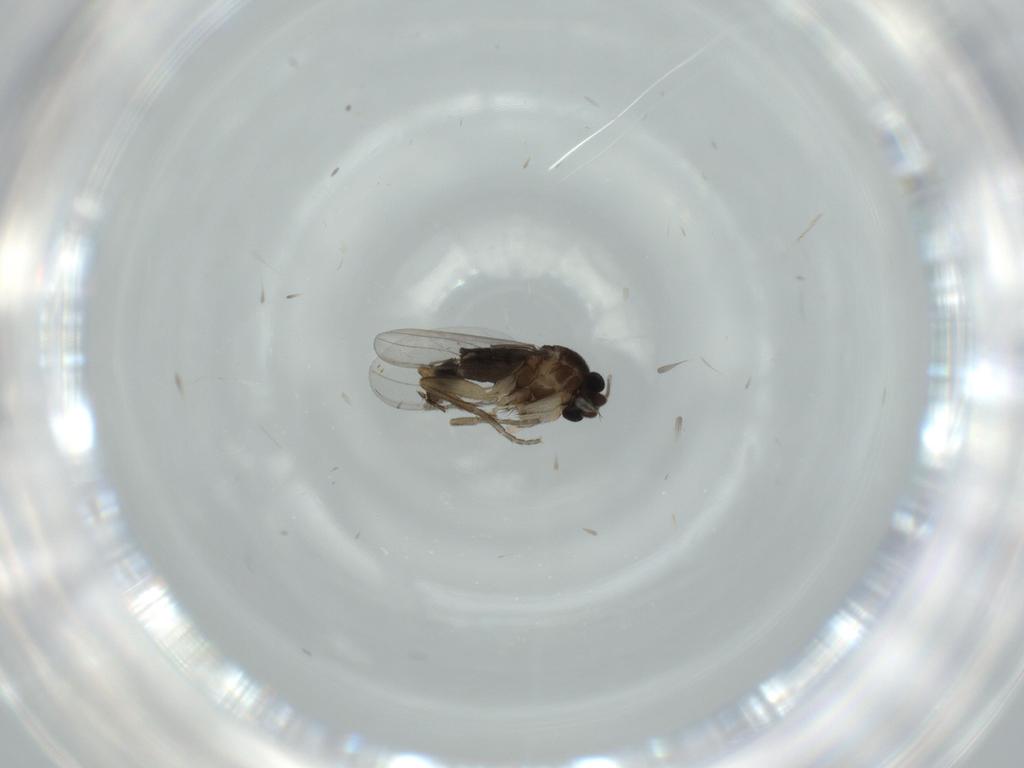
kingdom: Animalia
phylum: Arthropoda
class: Insecta
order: Diptera
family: Phoridae
